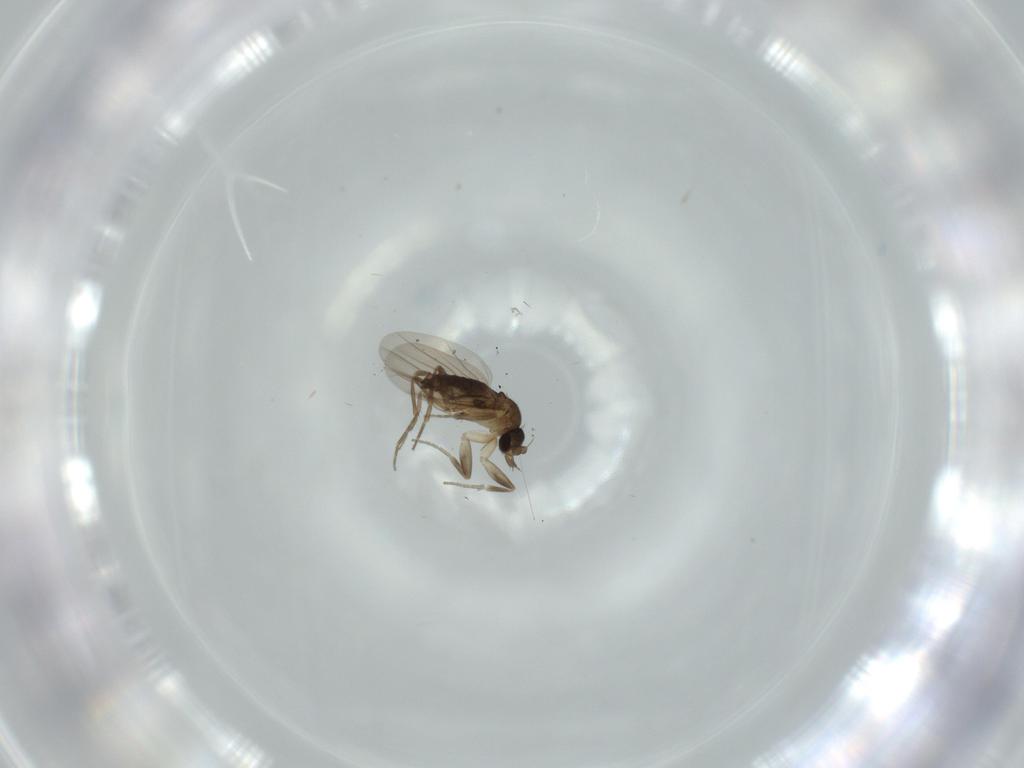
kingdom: Animalia
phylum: Arthropoda
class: Insecta
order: Diptera
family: Phoridae
